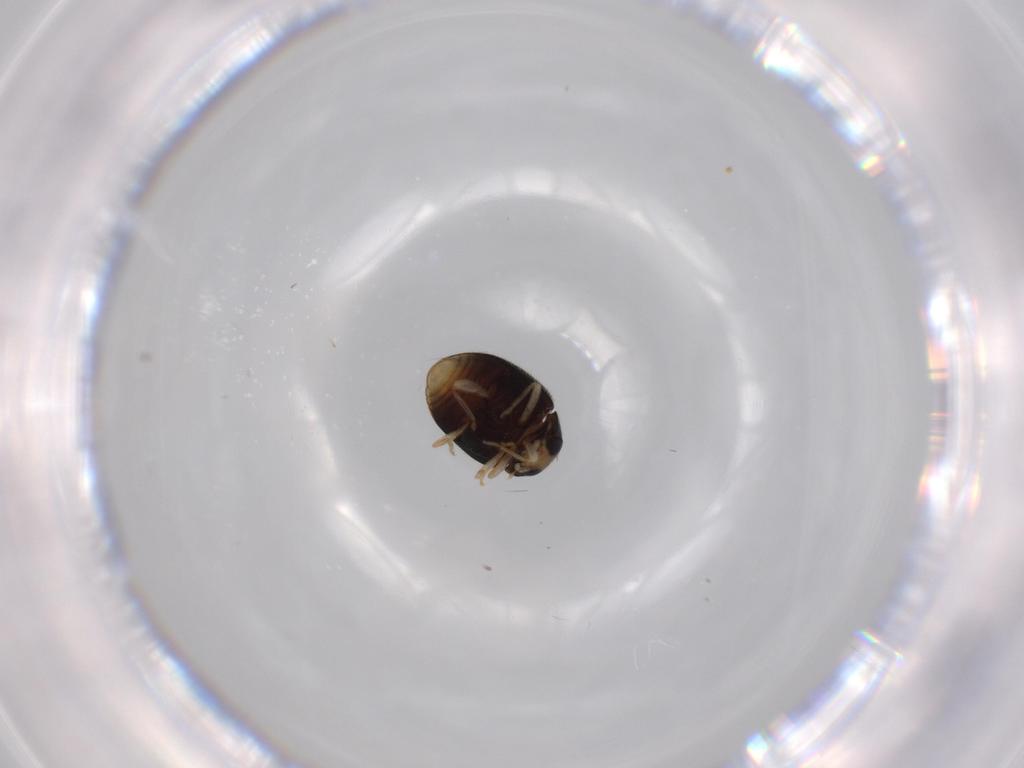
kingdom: Animalia
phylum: Arthropoda
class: Insecta
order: Coleoptera
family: Coccinellidae
